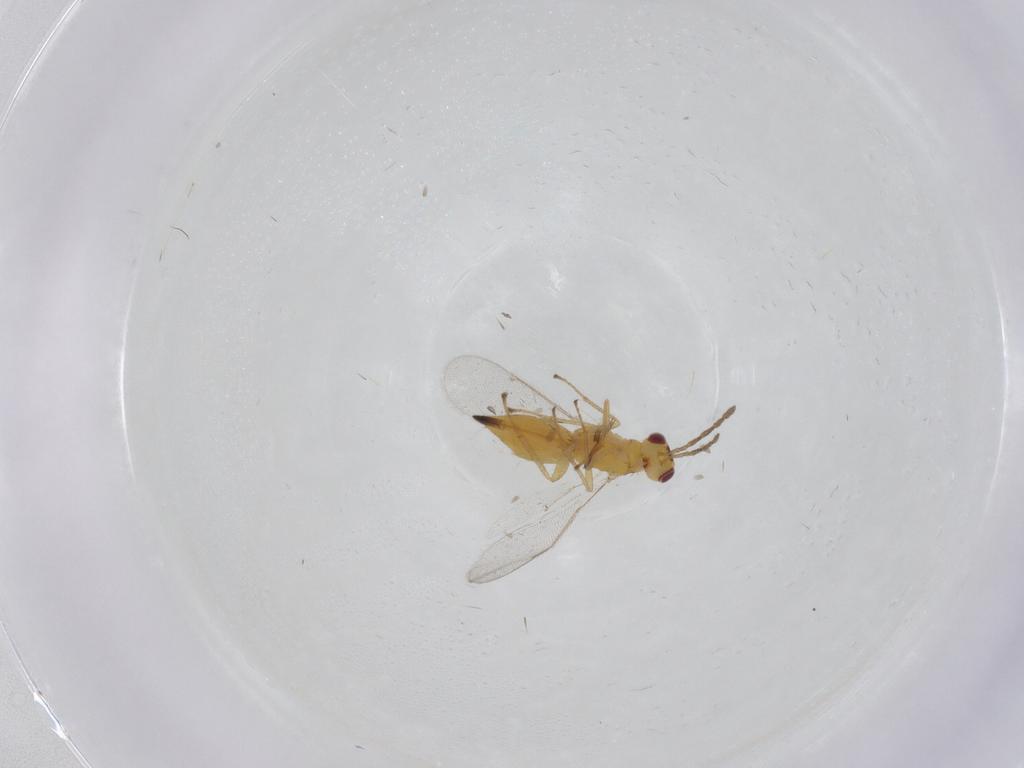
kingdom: Animalia
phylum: Arthropoda
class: Insecta
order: Hymenoptera
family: Eulophidae
